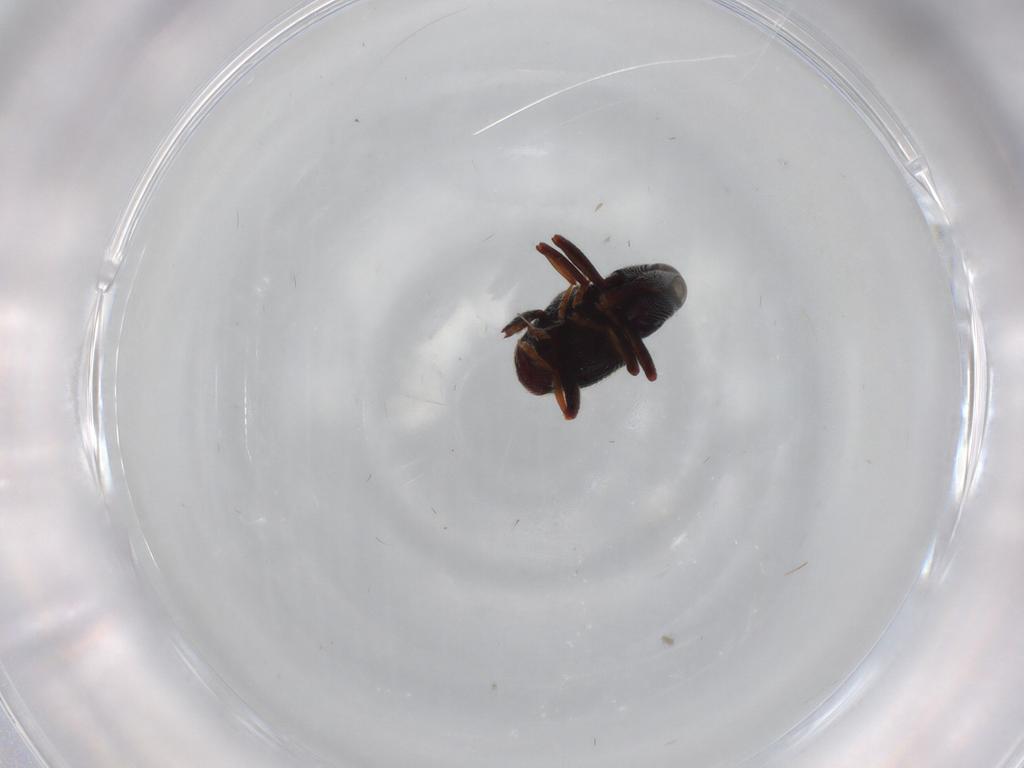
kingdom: Animalia
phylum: Arthropoda
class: Insecta
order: Coleoptera
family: Curculionidae
